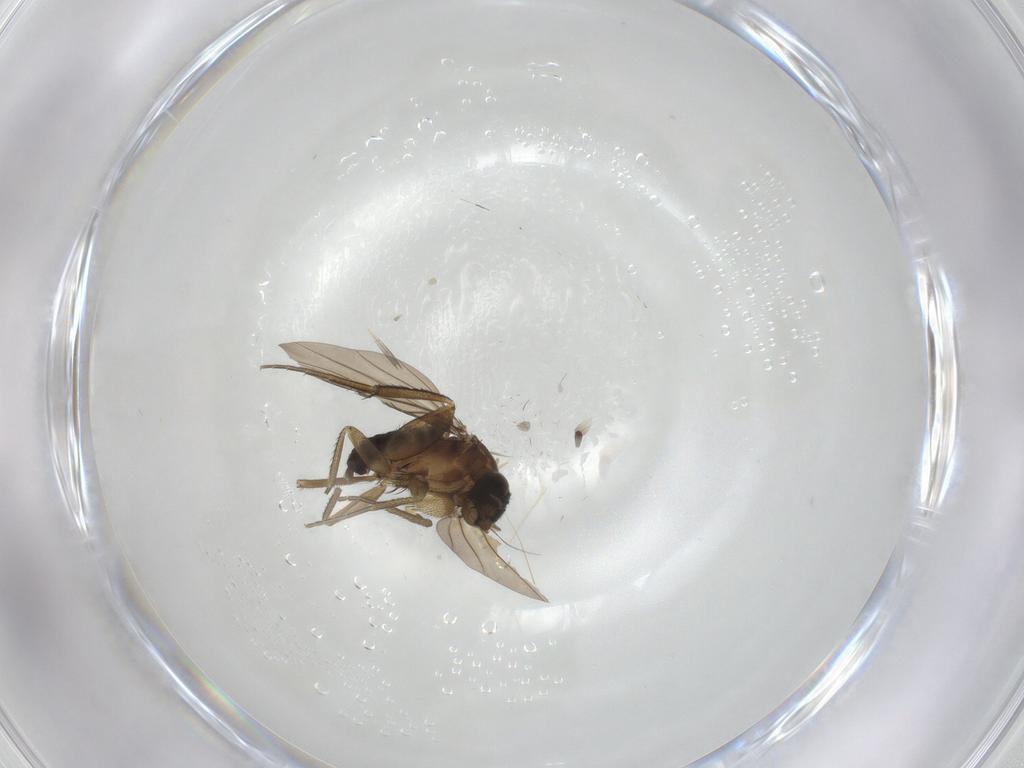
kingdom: Animalia
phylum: Arthropoda
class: Insecta
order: Diptera
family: Phoridae
